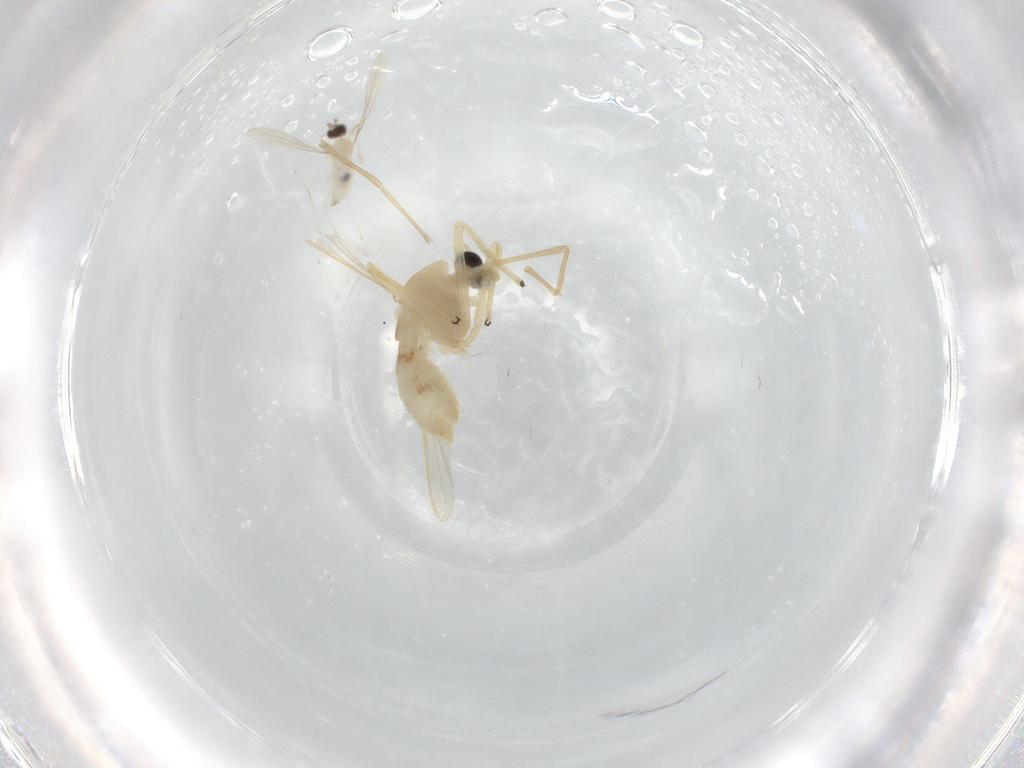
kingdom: Animalia
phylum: Arthropoda
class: Insecta
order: Diptera
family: Chironomidae
